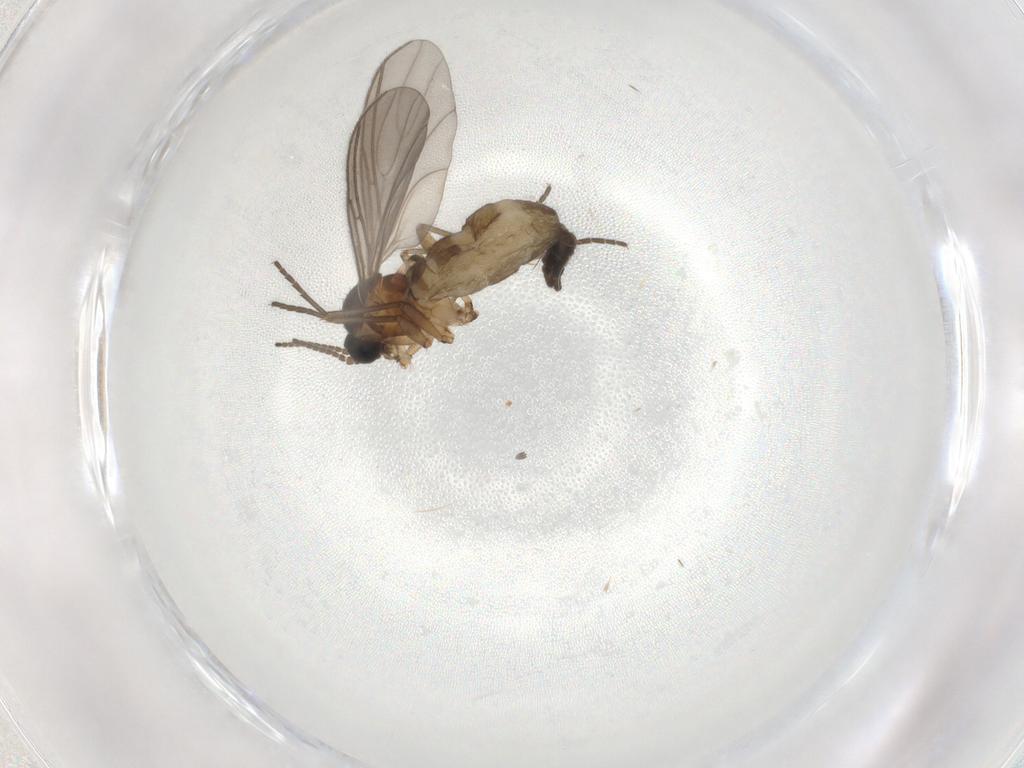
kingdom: Animalia
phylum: Arthropoda
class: Insecta
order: Diptera
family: Sciaridae
